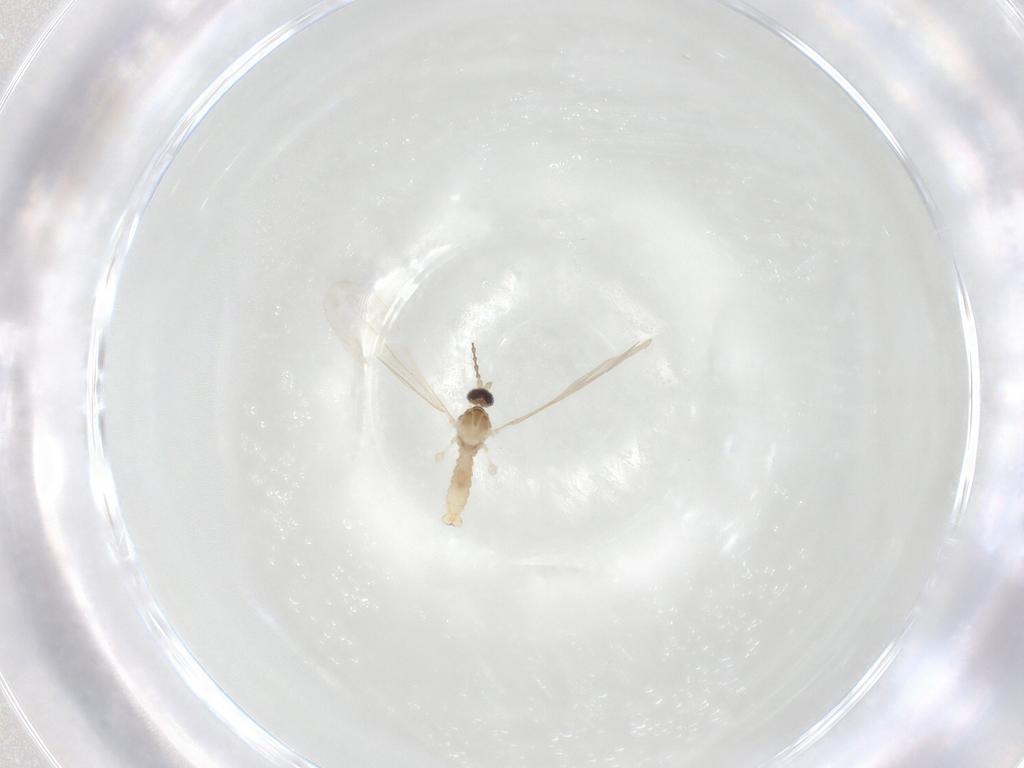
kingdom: Animalia
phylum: Arthropoda
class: Insecta
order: Diptera
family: Cecidomyiidae
